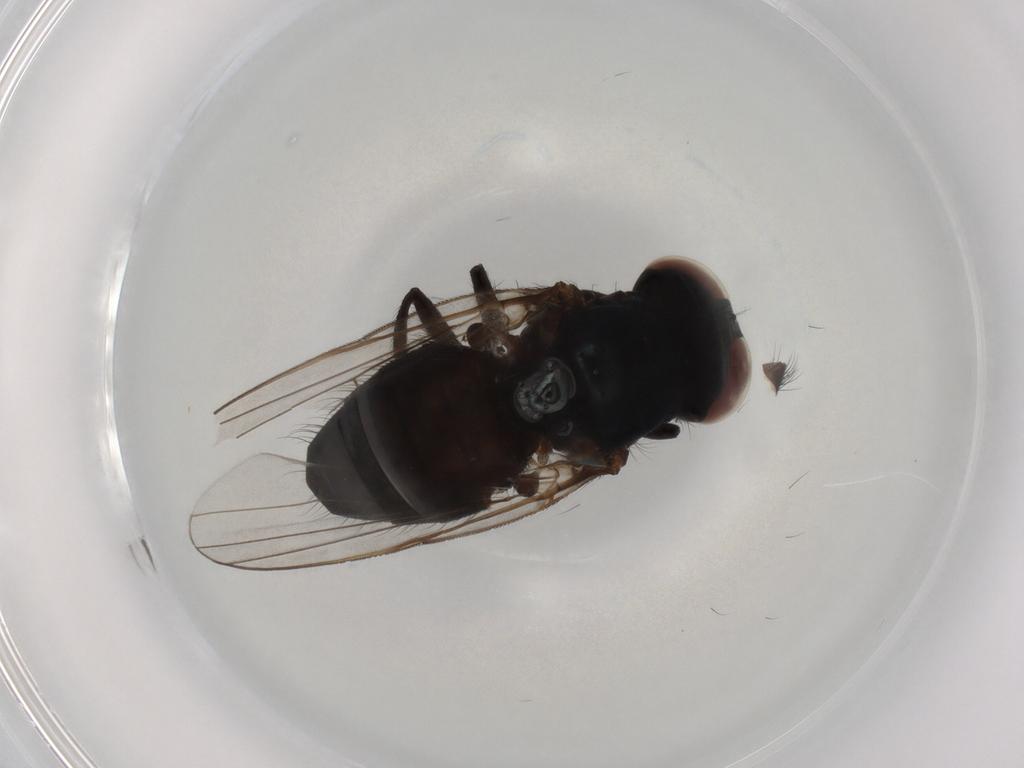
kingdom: Animalia
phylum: Arthropoda
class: Insecta
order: Diptera
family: Chloropidae
